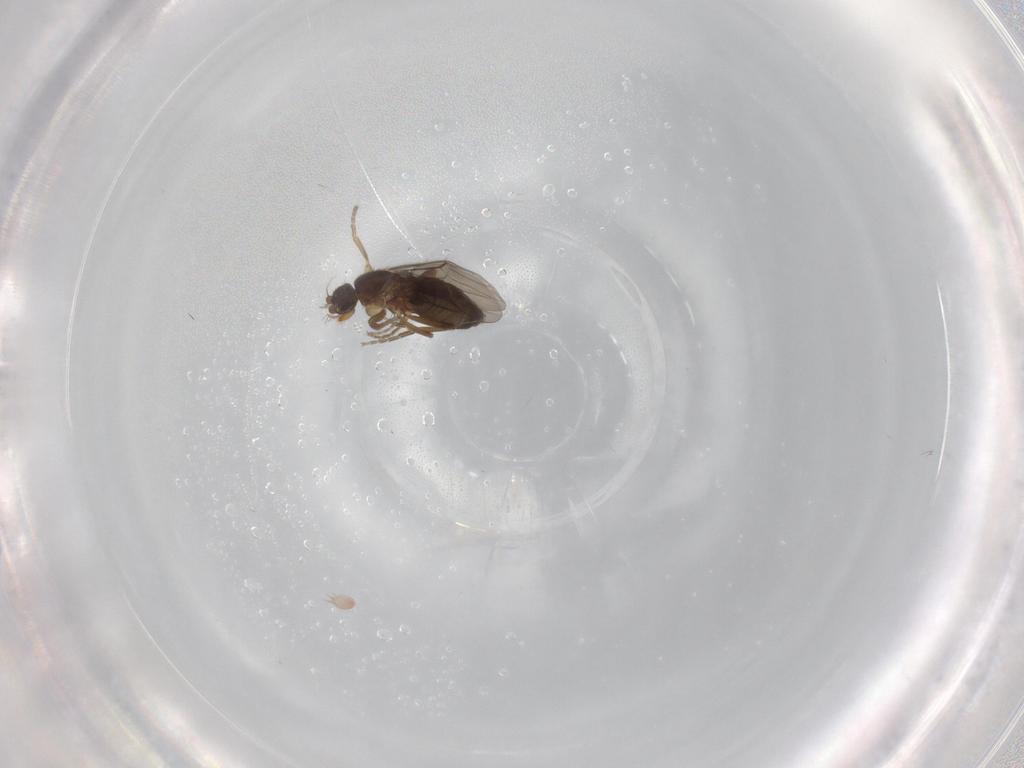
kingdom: Animalia
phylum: Arthropoda
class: Insecta
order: Diptera
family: Phoridae
